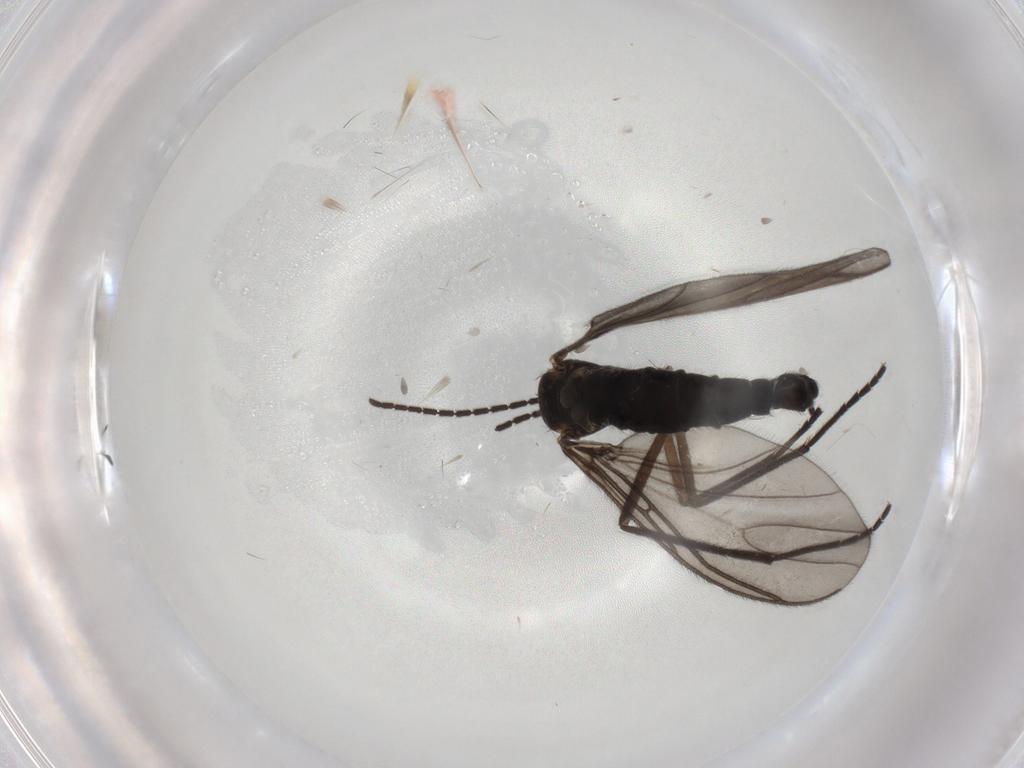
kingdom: Animalia
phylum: Arthropoda
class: Insecta
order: Diptera
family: Sciaridae
